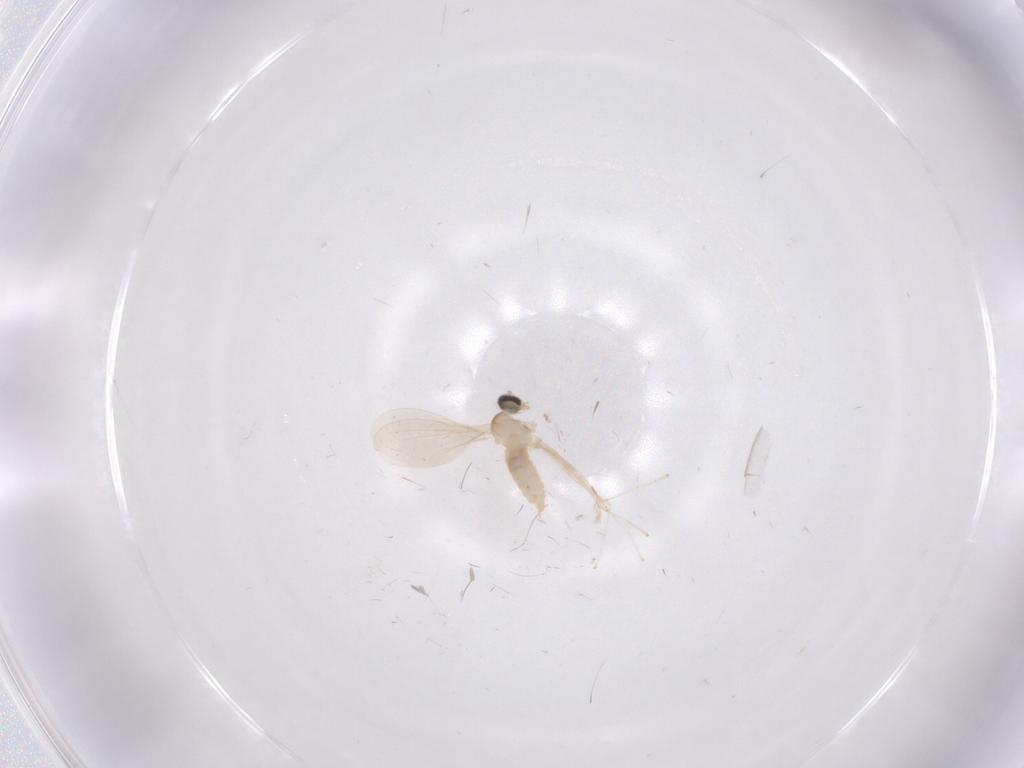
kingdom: Animalia
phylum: Arthropoda
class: Insecta
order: Diptera
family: Cecidomyiidae
